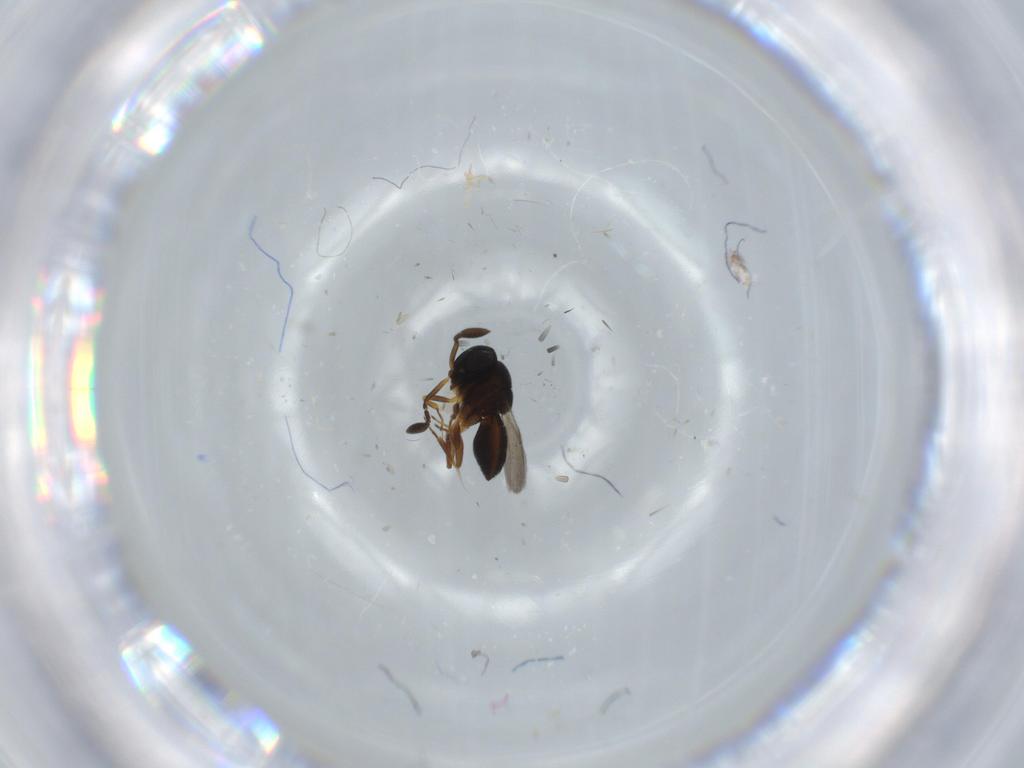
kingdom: Animalia
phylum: Arthropoda
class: Insecta
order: Hymenoptera
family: Scelionidae
